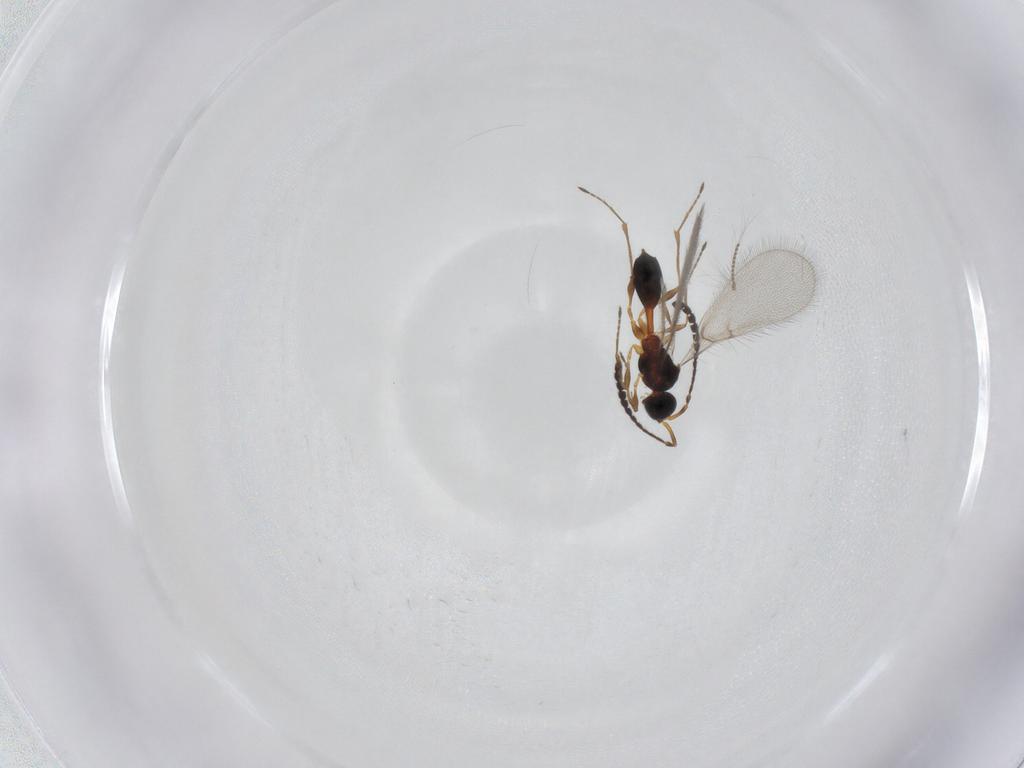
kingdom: Animalia
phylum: Arthropoda
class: Insecta
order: Hymenoptera
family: Diapriidae
